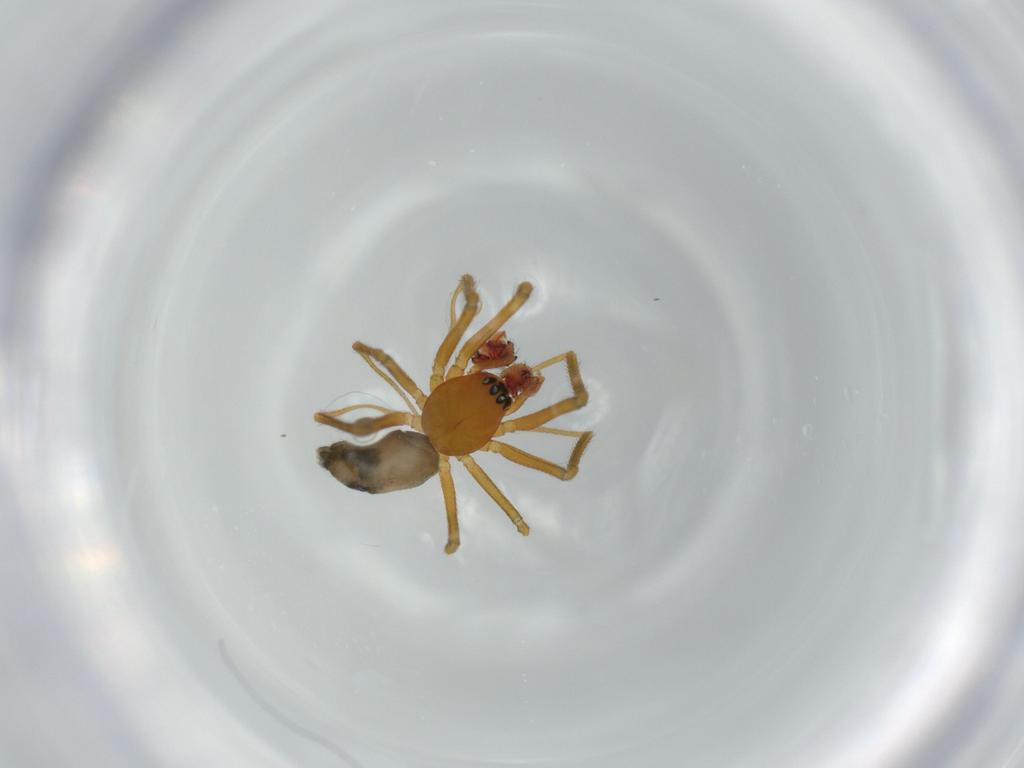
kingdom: Animalia
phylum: Arthropoda
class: Arachnida
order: Araneae
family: Linyphiidae
